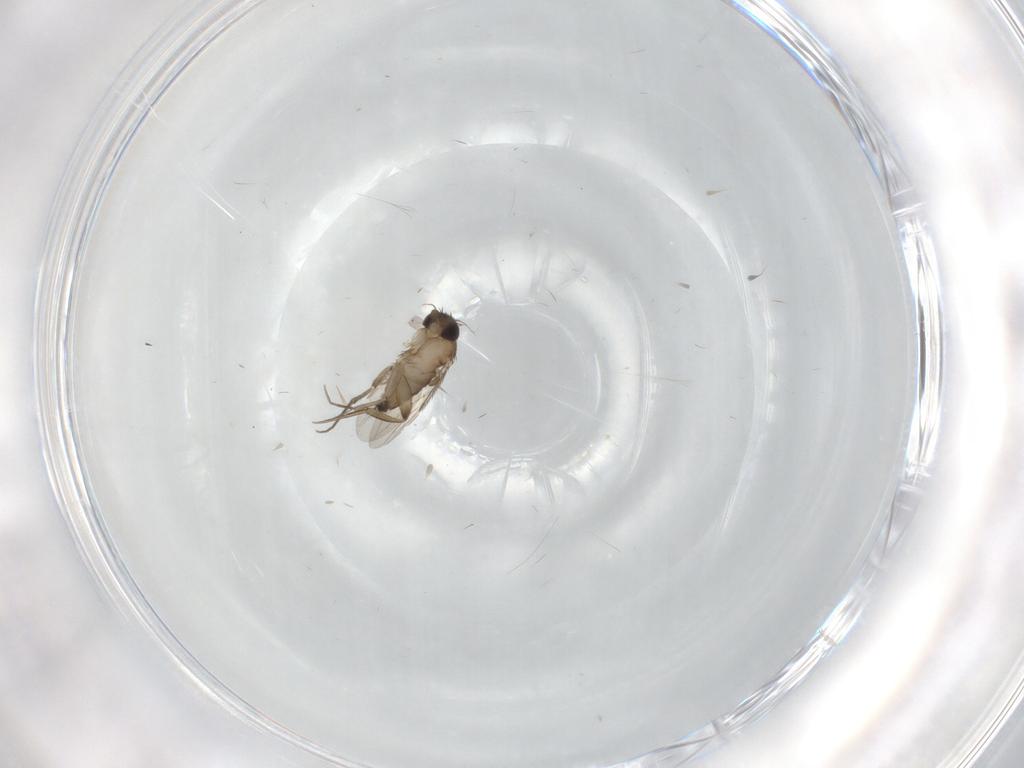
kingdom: Animalia
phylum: Arthropoda
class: Insecta
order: Diptera
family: Phoridae
